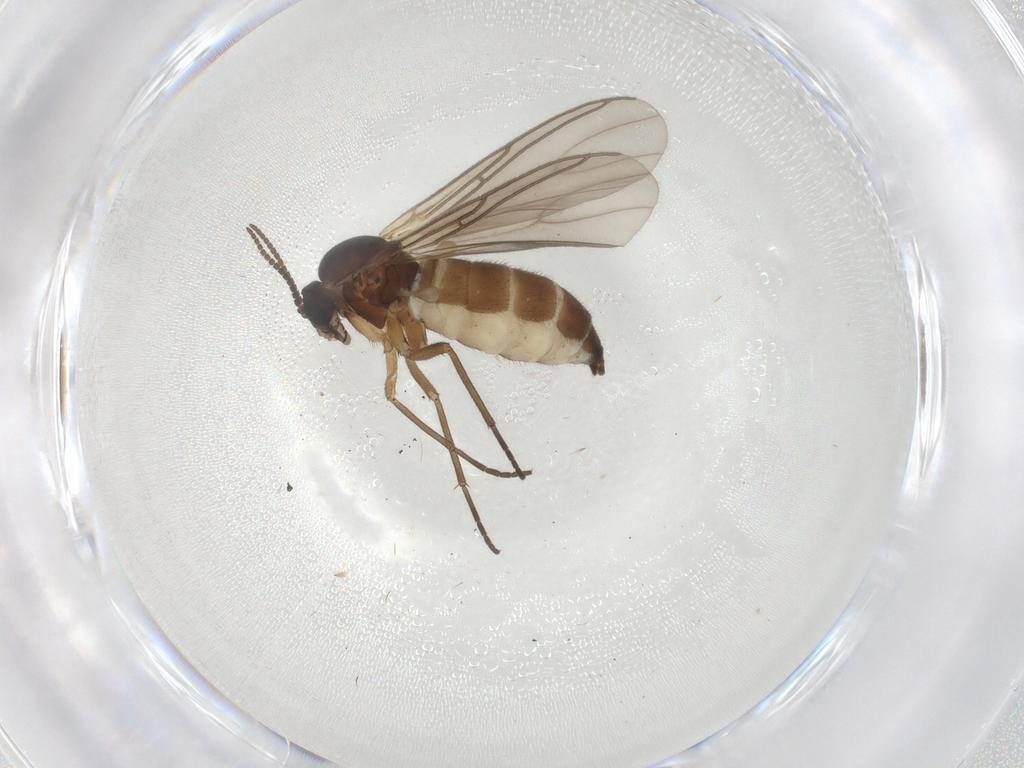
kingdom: Animalia
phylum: Arthropoda
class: Insecta
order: Diptera
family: Sciaridae
